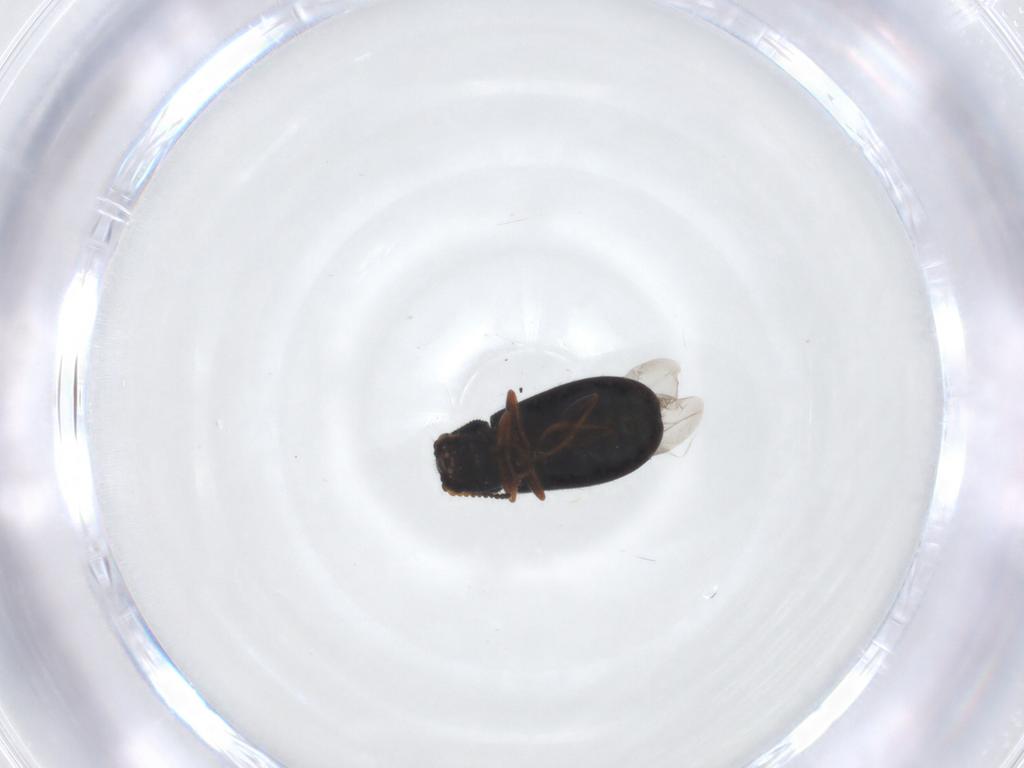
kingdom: Animalia
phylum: Arthropoda
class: Insecta
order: Coleoptera
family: Melyridae
